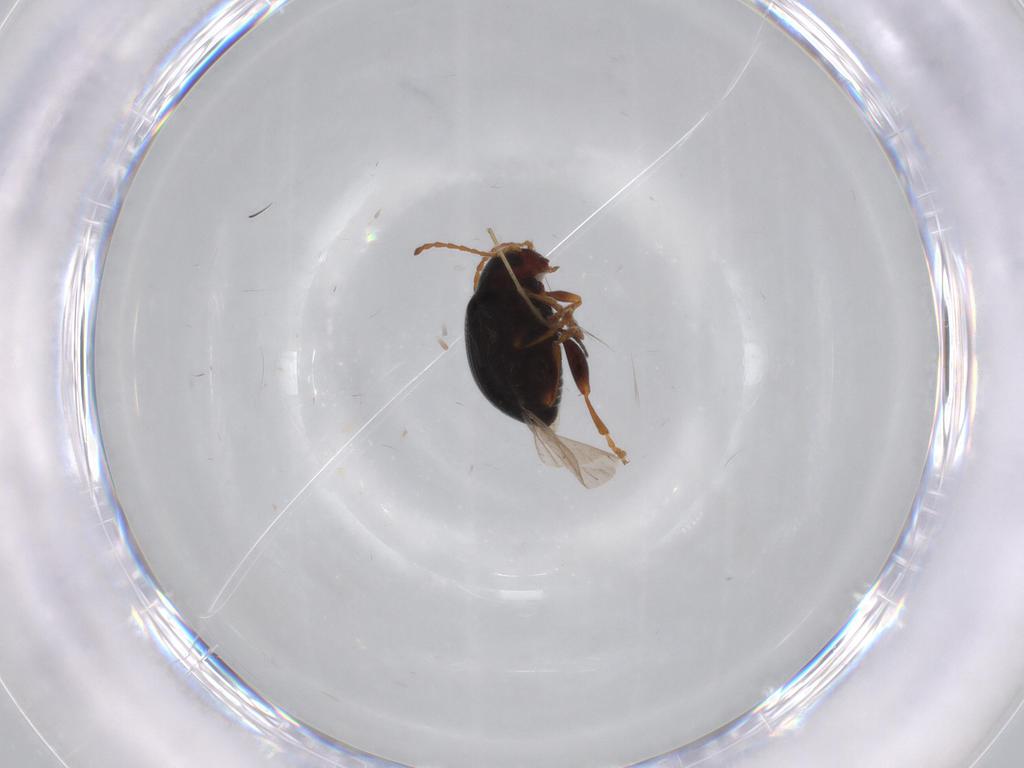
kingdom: Animalia
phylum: Arthropoda
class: Insecta
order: Coleoptera
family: Chrysomelidae
